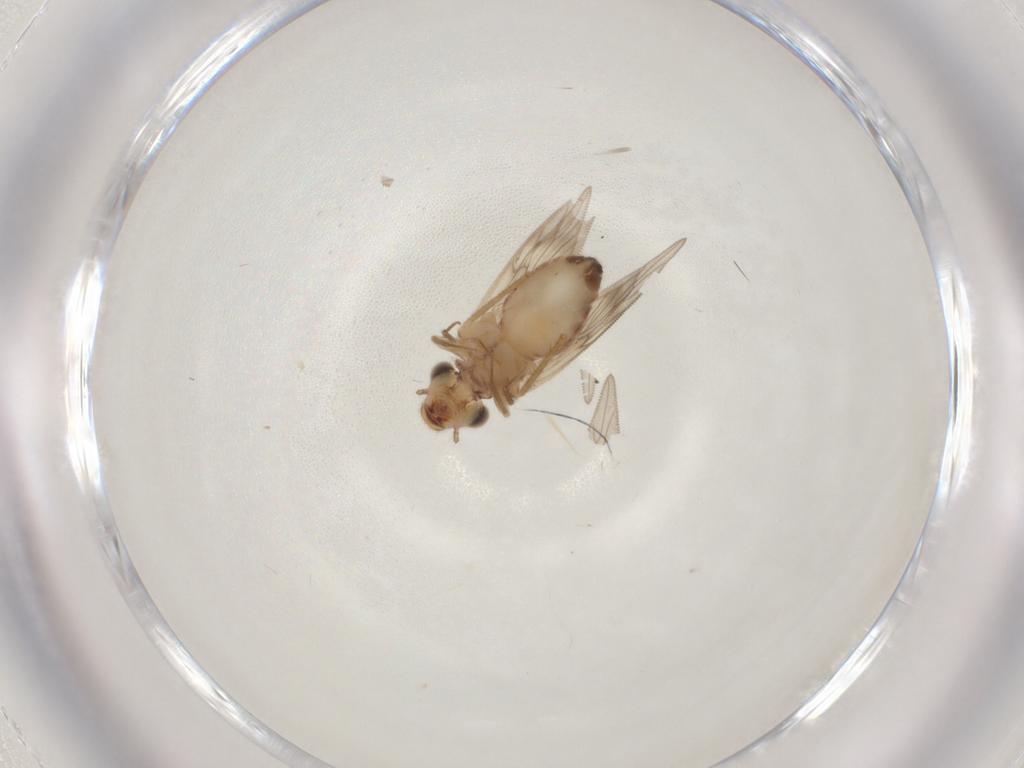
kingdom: Animalia
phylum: Arthropoda
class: Insecta
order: Psocodea
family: Lepidopsocidae
